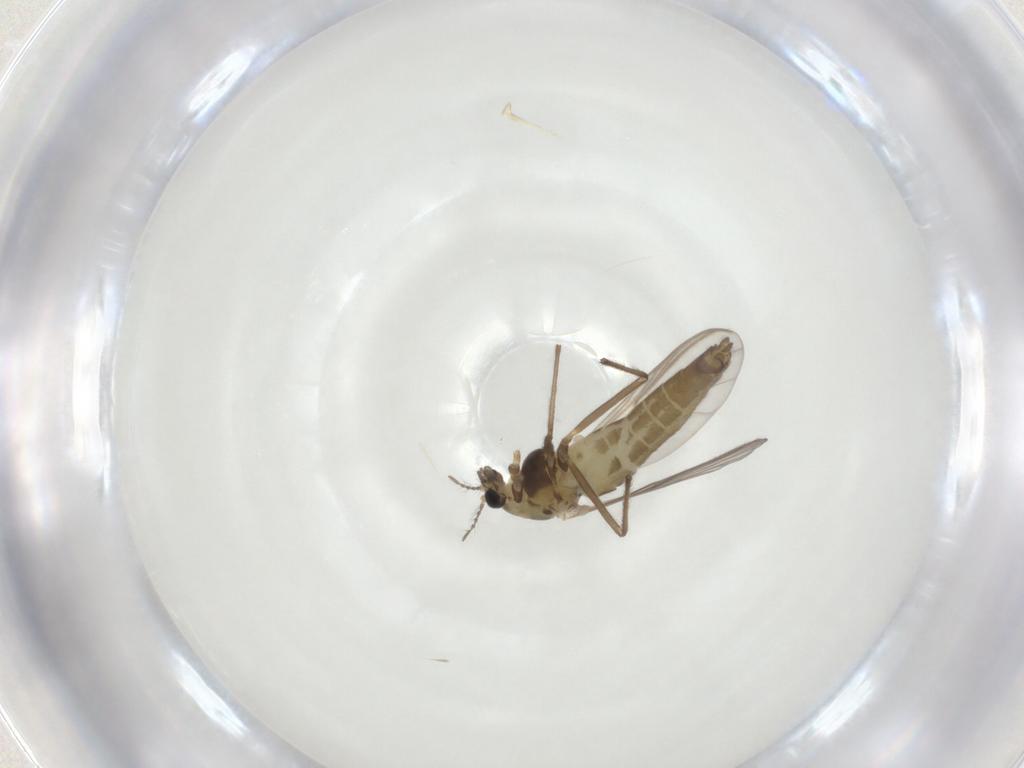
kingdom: Animalia
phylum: Arthropoda
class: Insecta
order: Diptera
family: Chironomidae
